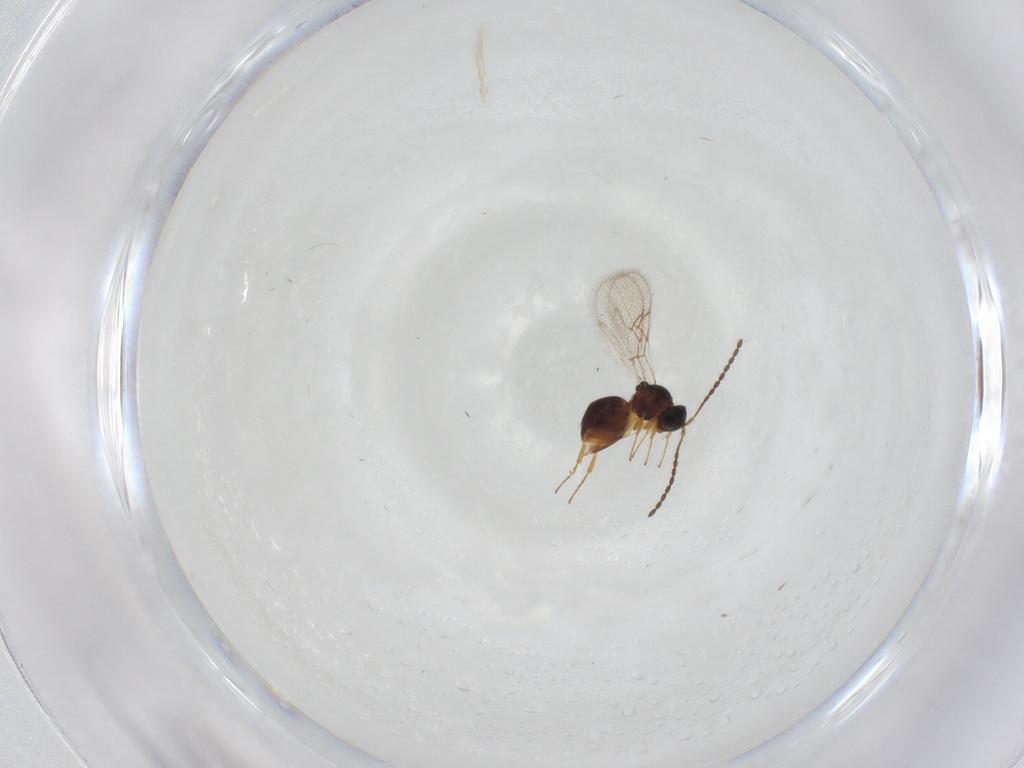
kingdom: Animalia
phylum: Arthropoda
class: Insecta
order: Hymenoptera
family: Figitidae
